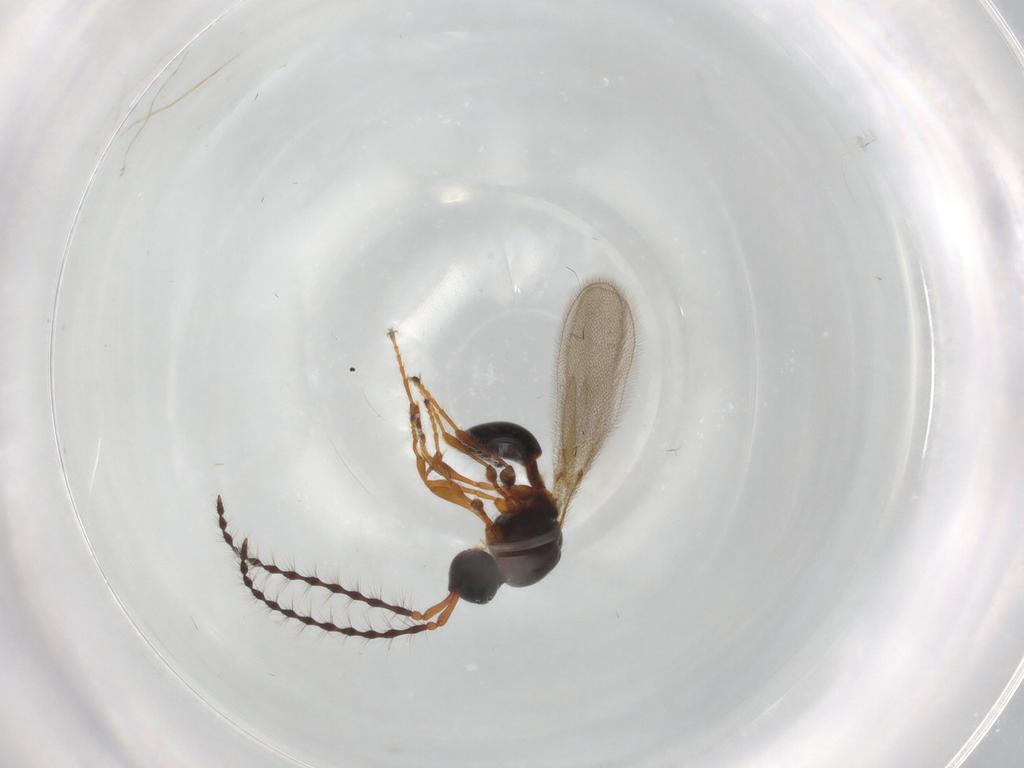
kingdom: Animalia
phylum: Arthropoda
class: Insecta
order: Hymenoptera
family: Diapriidae
